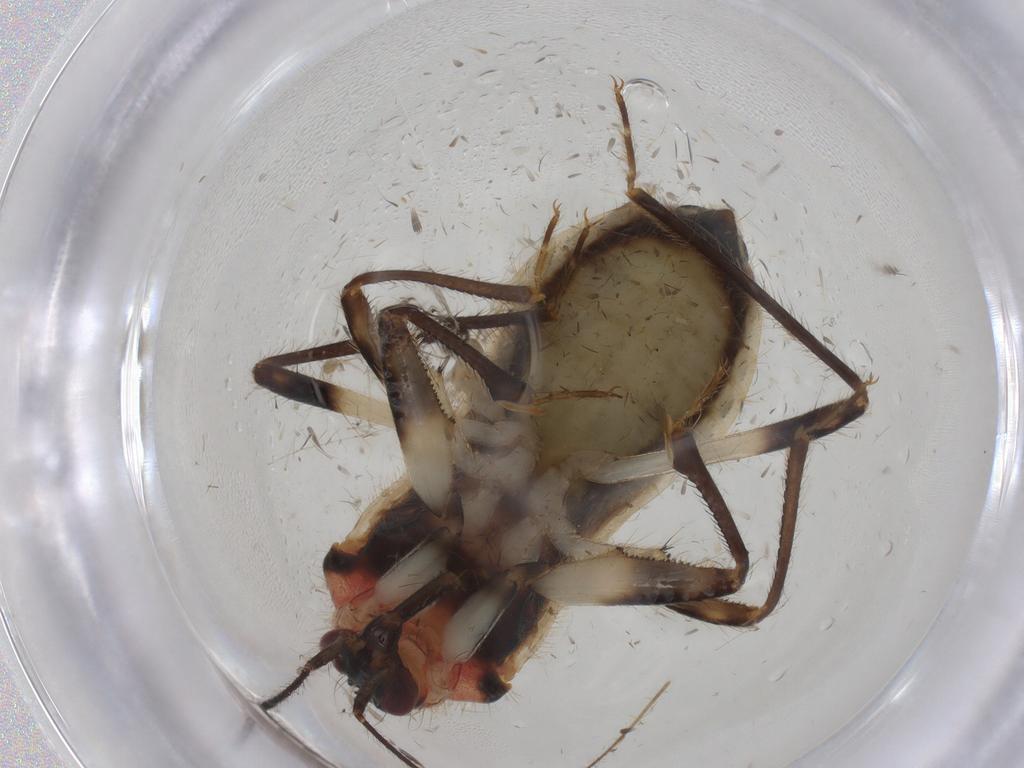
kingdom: Animalia
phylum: Arthropoda
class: Insecta
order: Hemiptera
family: Nabidae
